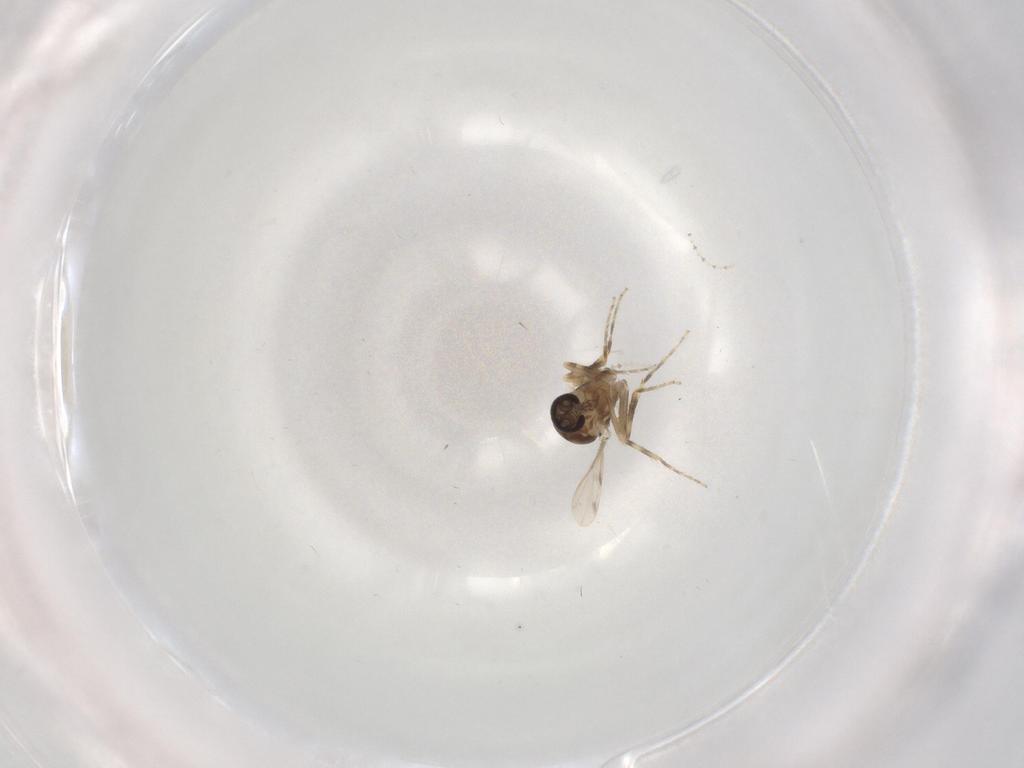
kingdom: Animalia
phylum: Arthropoda
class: Insecta
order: Diptera
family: Ceratopogonidae
